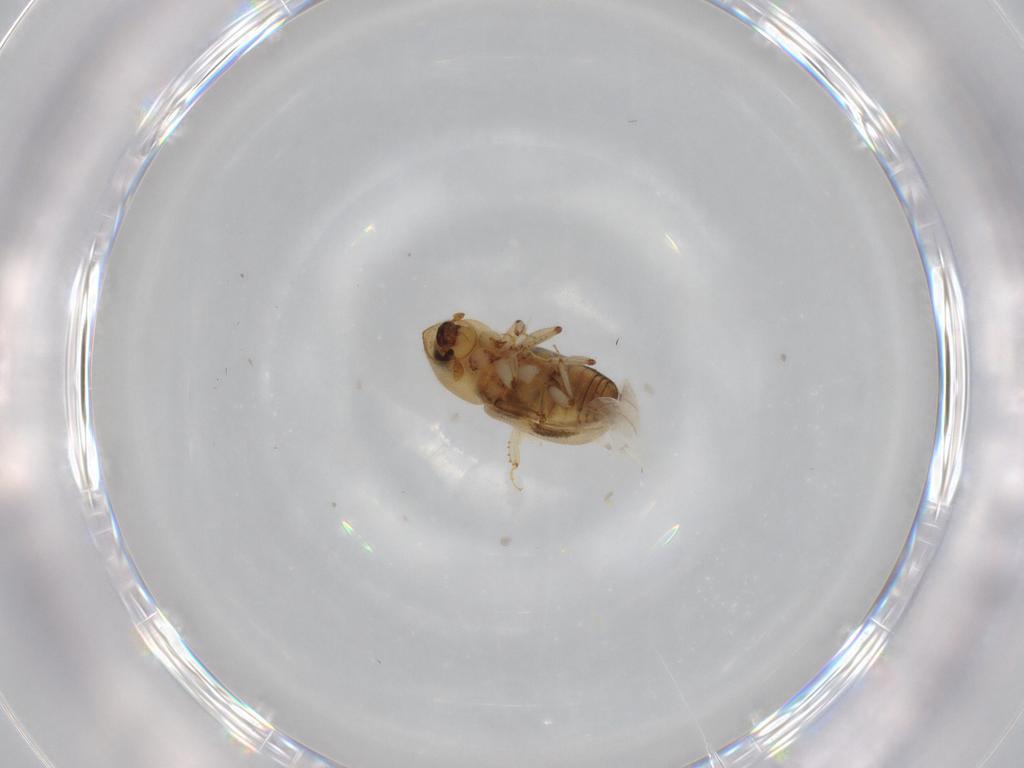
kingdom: Animalia
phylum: Arthropoda
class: Insecta
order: Coleoptera
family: Curculionidae
